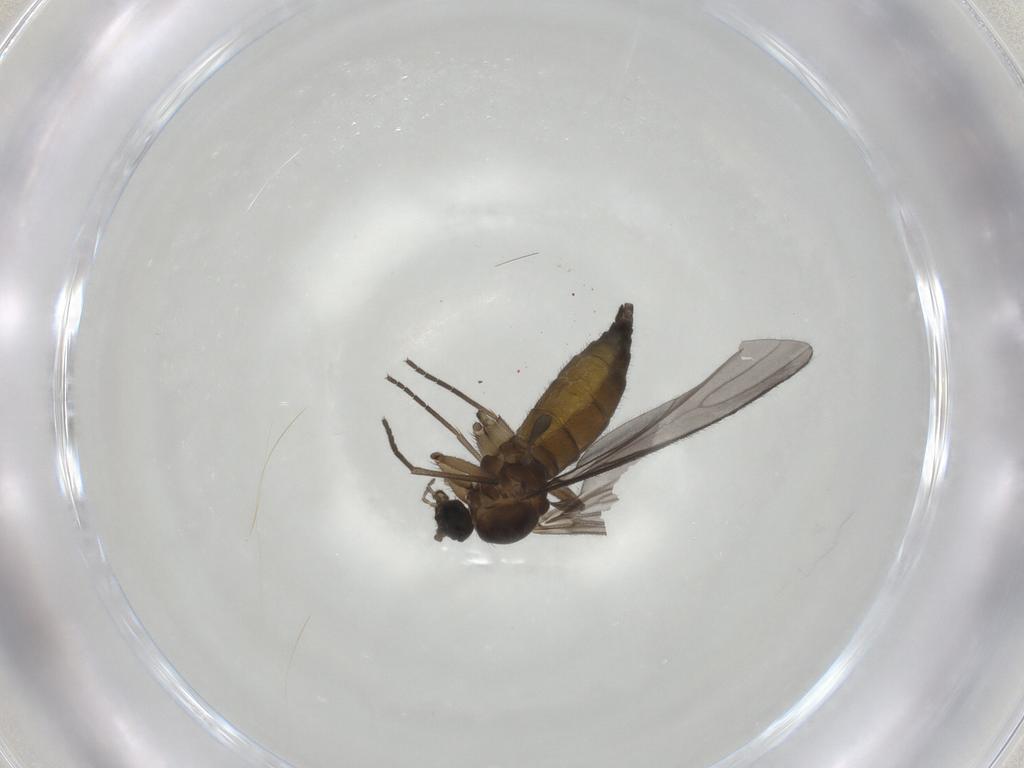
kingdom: Animalia
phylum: Arthropoda
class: Insecta
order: Diptera
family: Sciaridae
